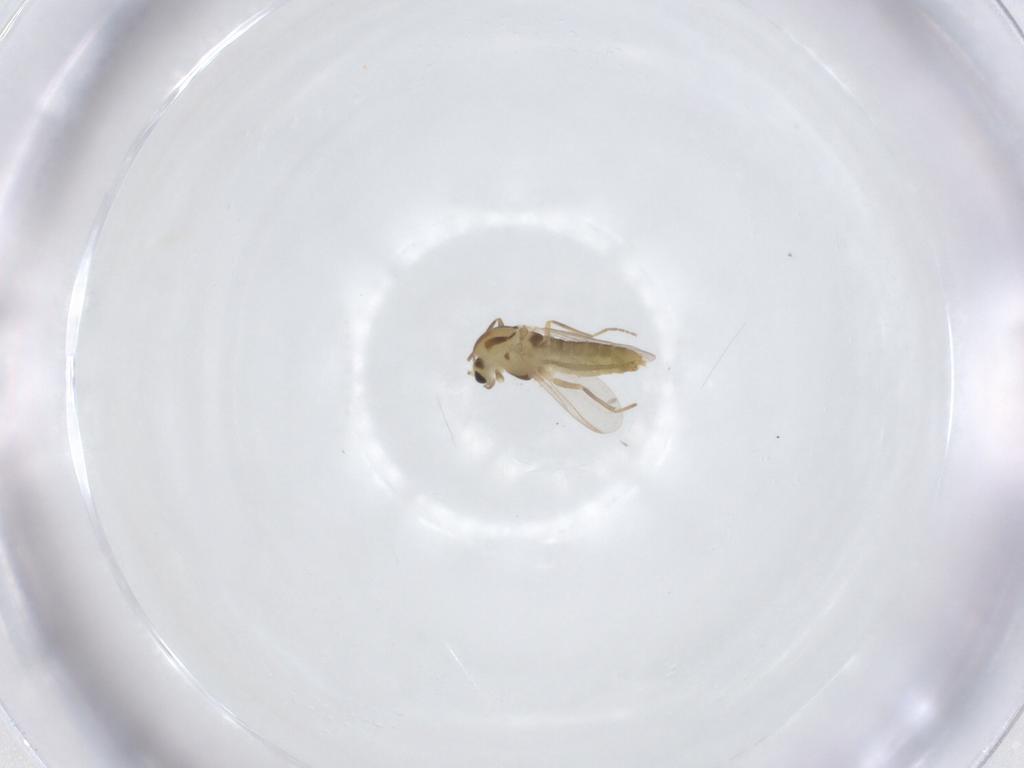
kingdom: Animalia
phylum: Arthropoda
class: Insecta
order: Diptera
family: Chironomidae
